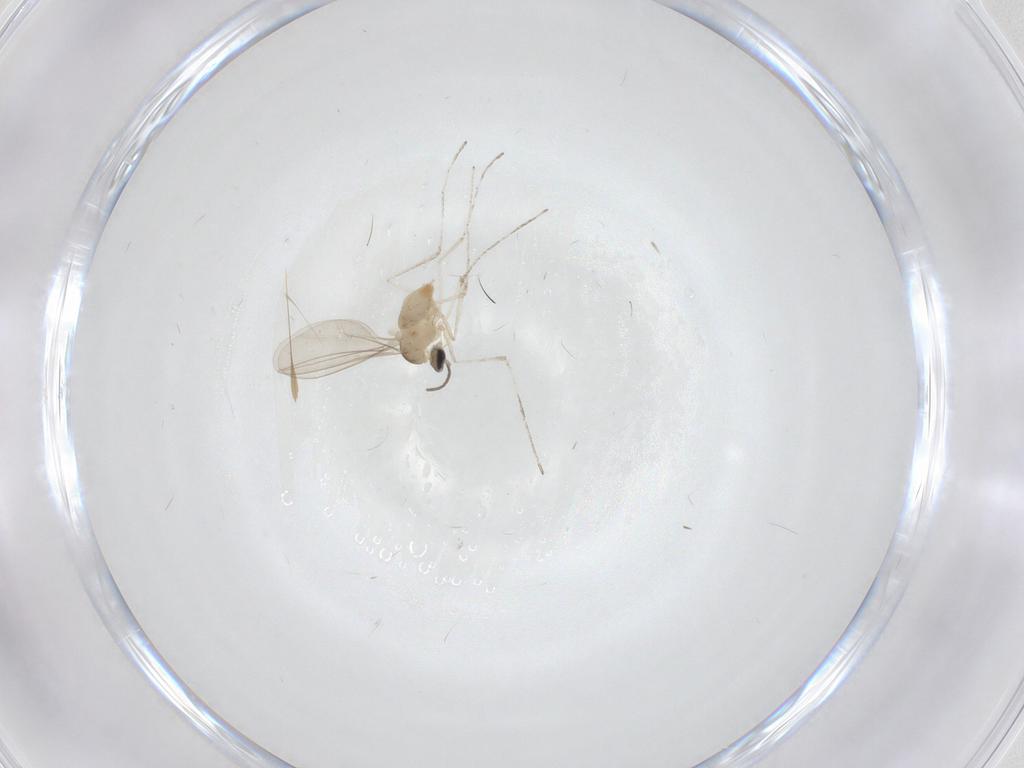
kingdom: Animalia
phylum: Arthropoda
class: Insecta
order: Diptera
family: Cecidomyiidae
